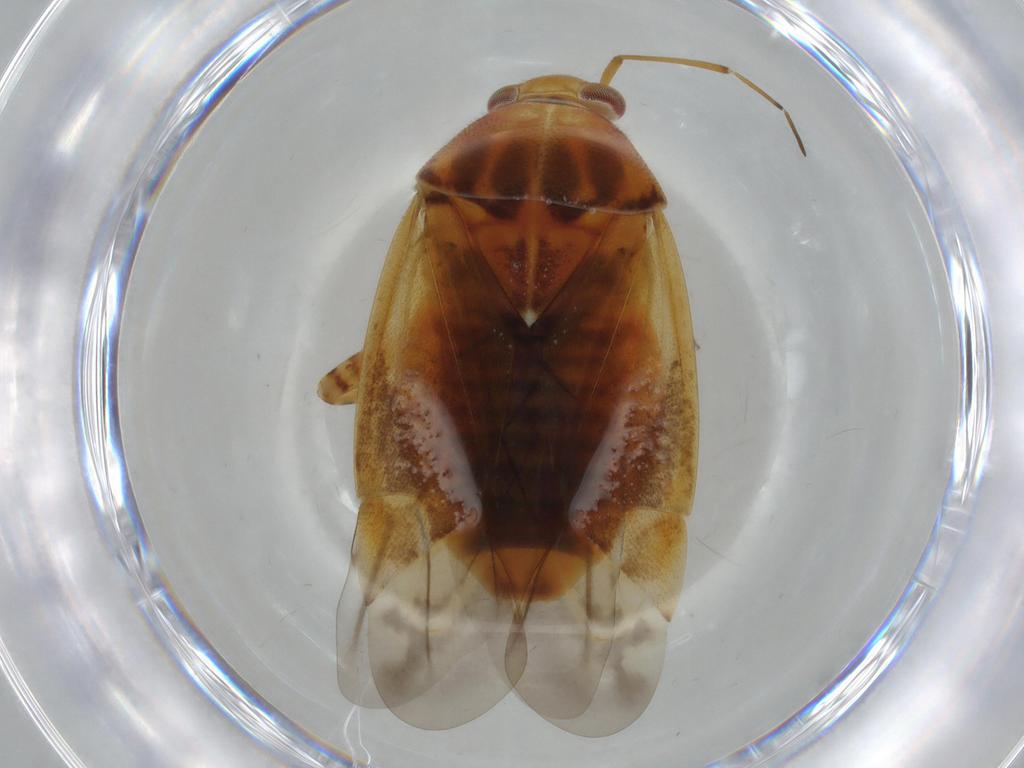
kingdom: Animalia
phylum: Arthropoda
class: Insecta
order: Hemiptera
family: Miridae
